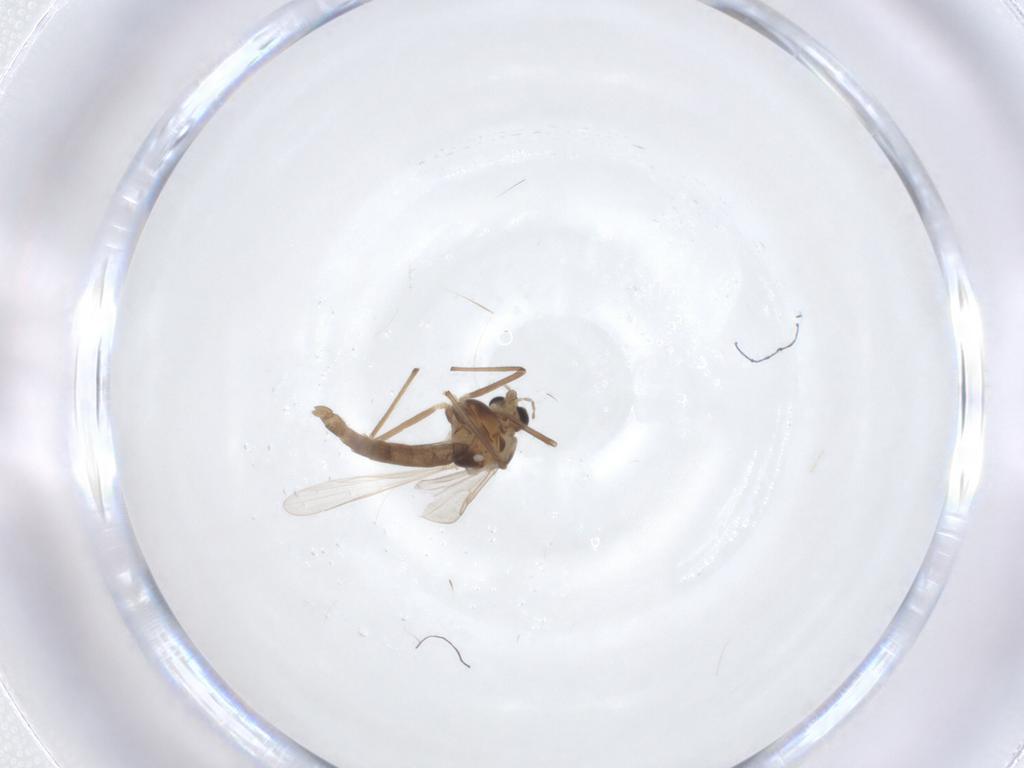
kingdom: Animalia
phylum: Arthropoda
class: Insecta
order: Diptera
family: Chironomidae
